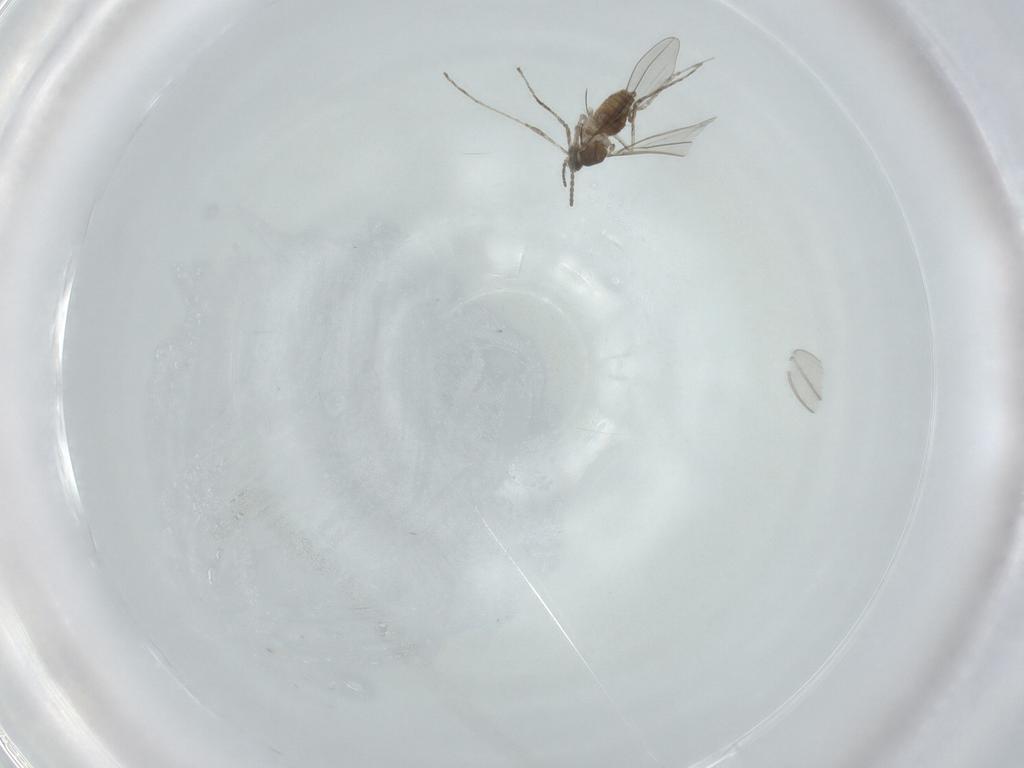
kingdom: Animalia
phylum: Arthropoda
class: Insecta
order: Diptera
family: Cecidomyiidae
